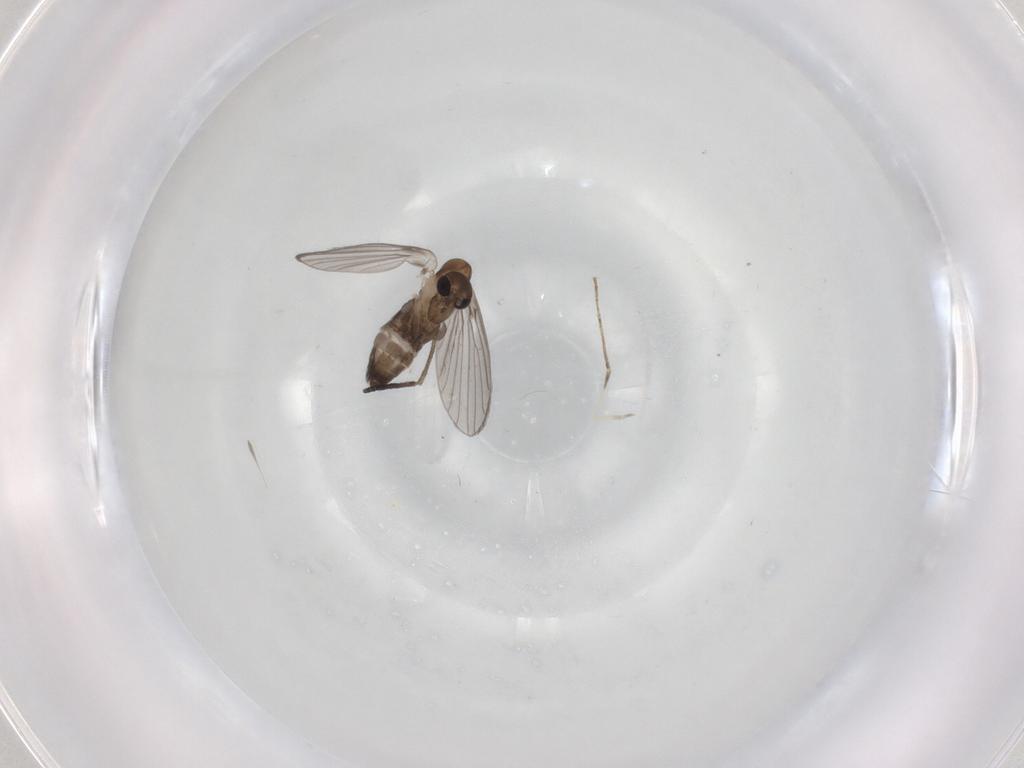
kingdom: Animalia
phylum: Arthropoda
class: Insecta
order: Diptera
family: Psychodidae
